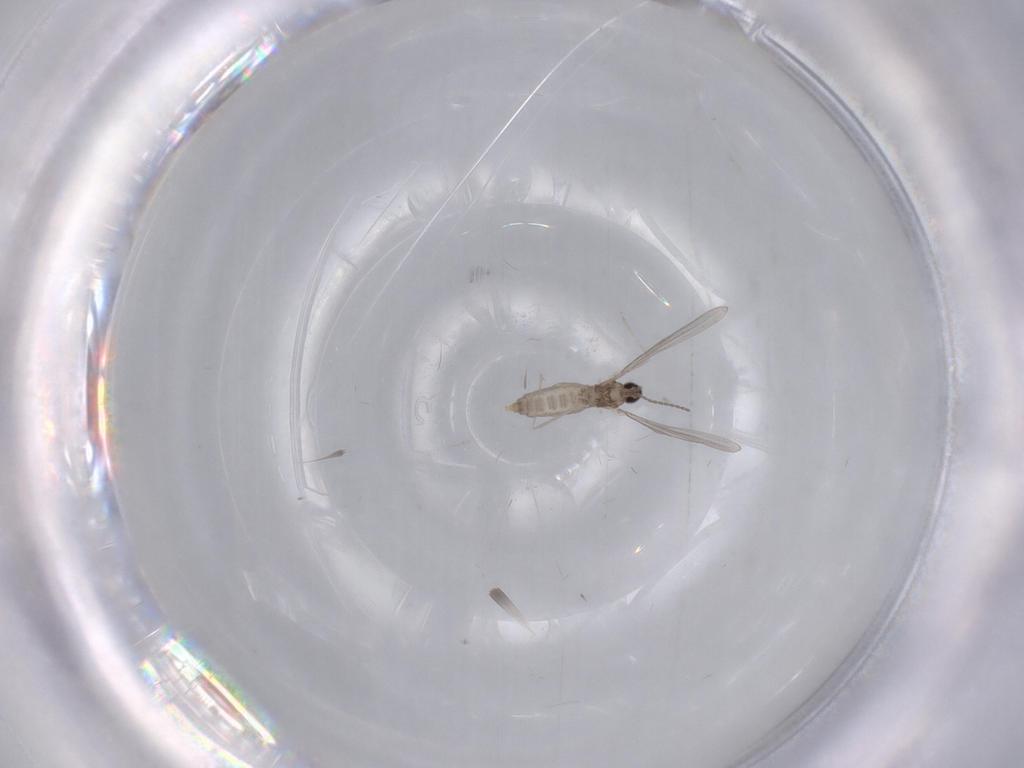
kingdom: Animalia
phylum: Arthropoda
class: Insecta
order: Diptera
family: Cecidomyiidae
